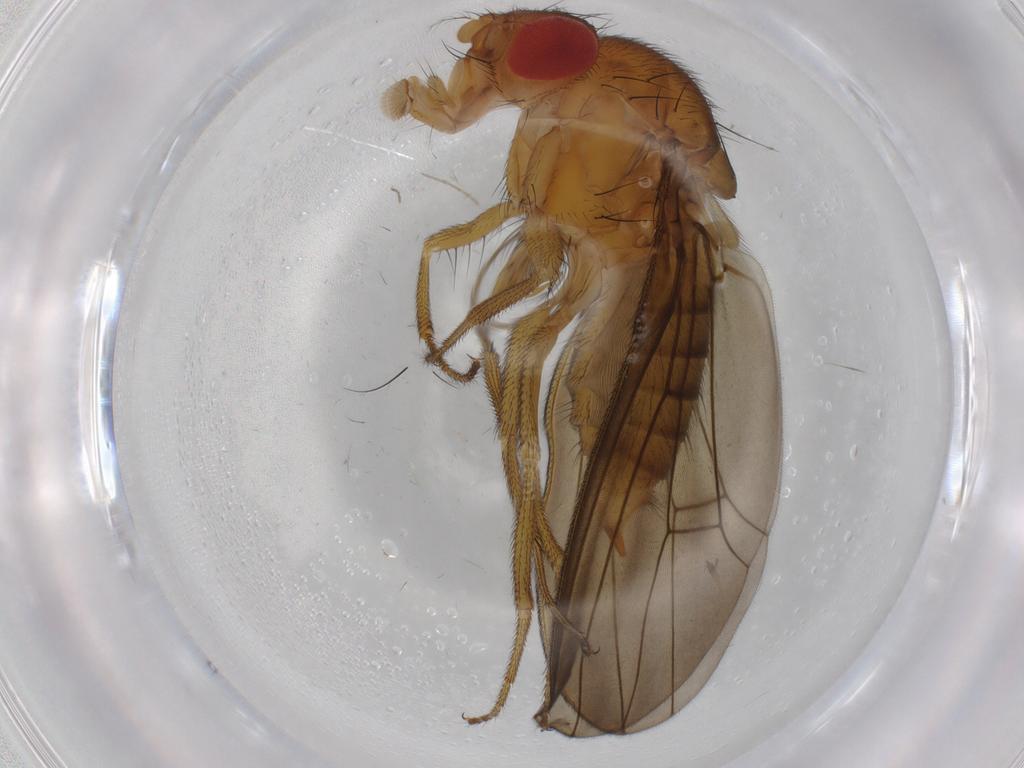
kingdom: Animalia
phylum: Arthropoda
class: Insecta
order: Diptera
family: Drosophilidae
